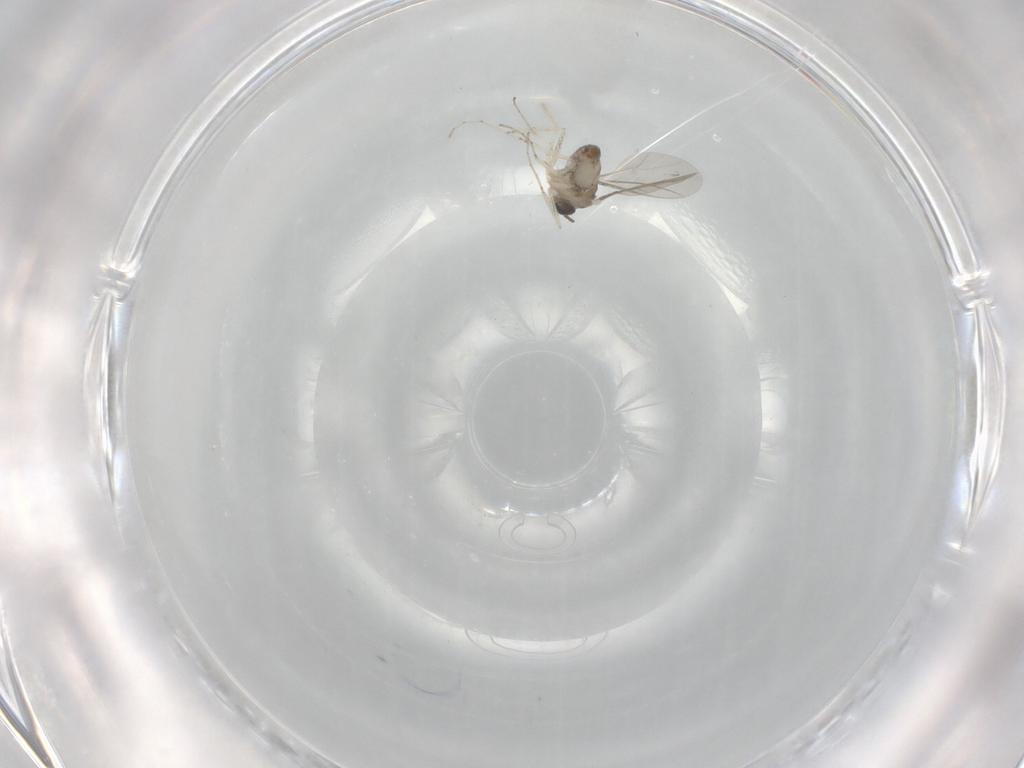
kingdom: Animalia
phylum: Arthropoda
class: Insecta
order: Diptera
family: Cecidomyiidae
